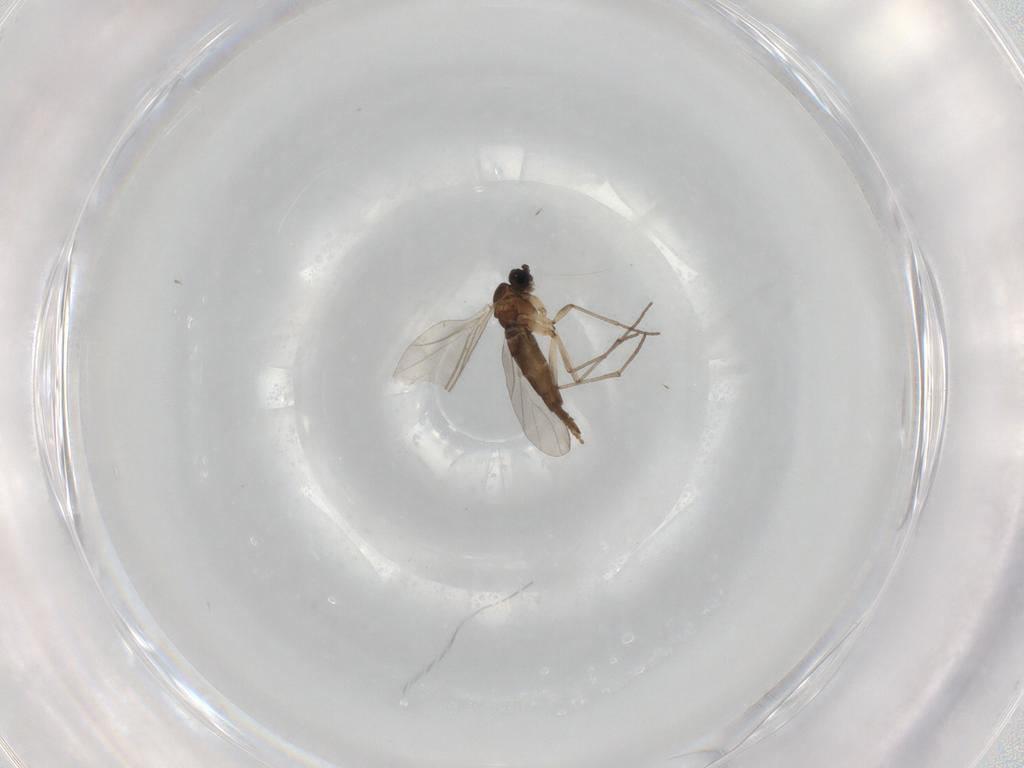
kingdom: Animalia
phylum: Arthropoda
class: Insecta
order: Diptera
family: Sciaridae
